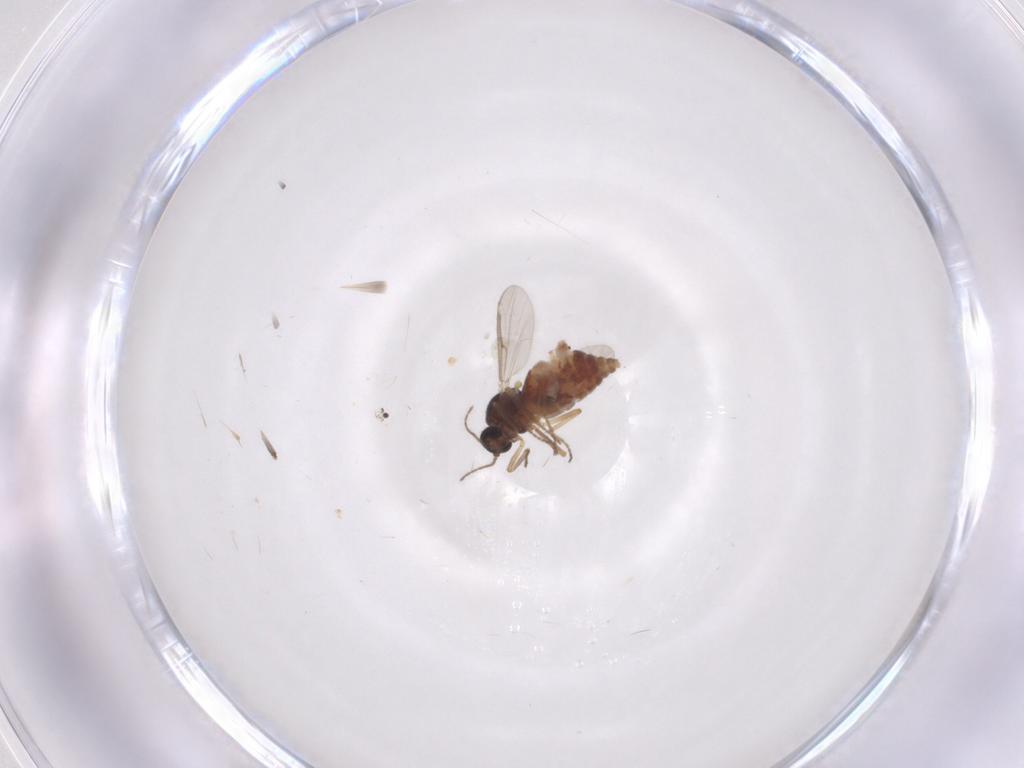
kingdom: Animalia
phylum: Arthropoda
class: Insecta
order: Diptera
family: Ceratopogonidae
